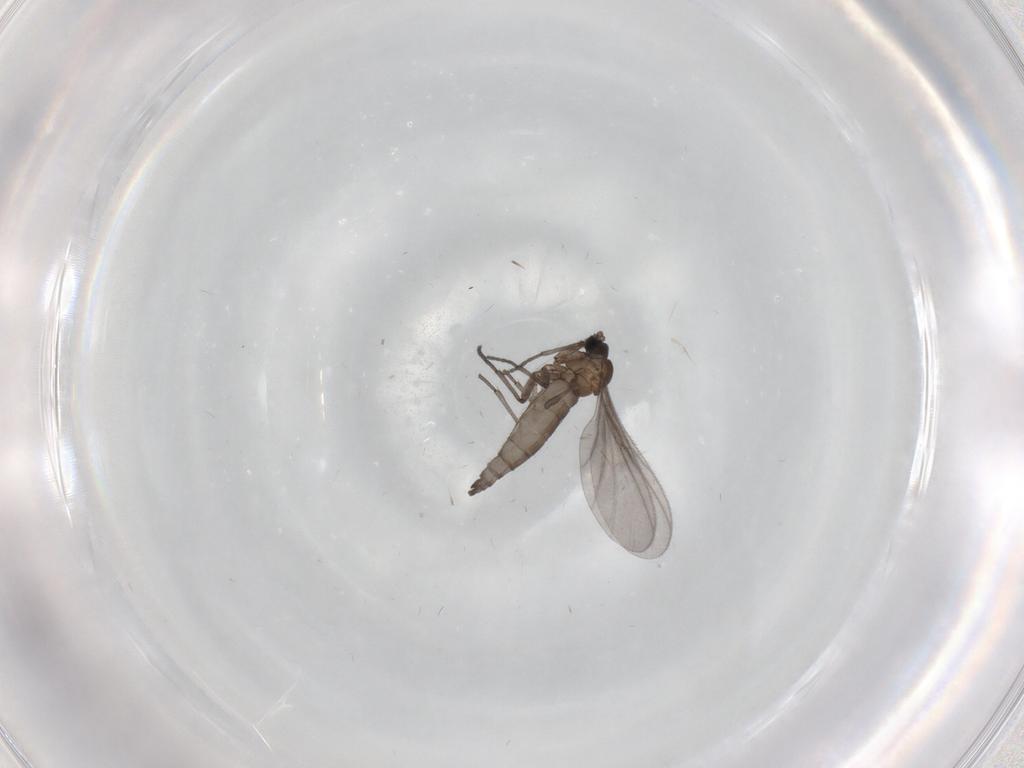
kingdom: Animalia
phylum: Arthropoda
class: Insecta
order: Diptera
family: Sciaridae
